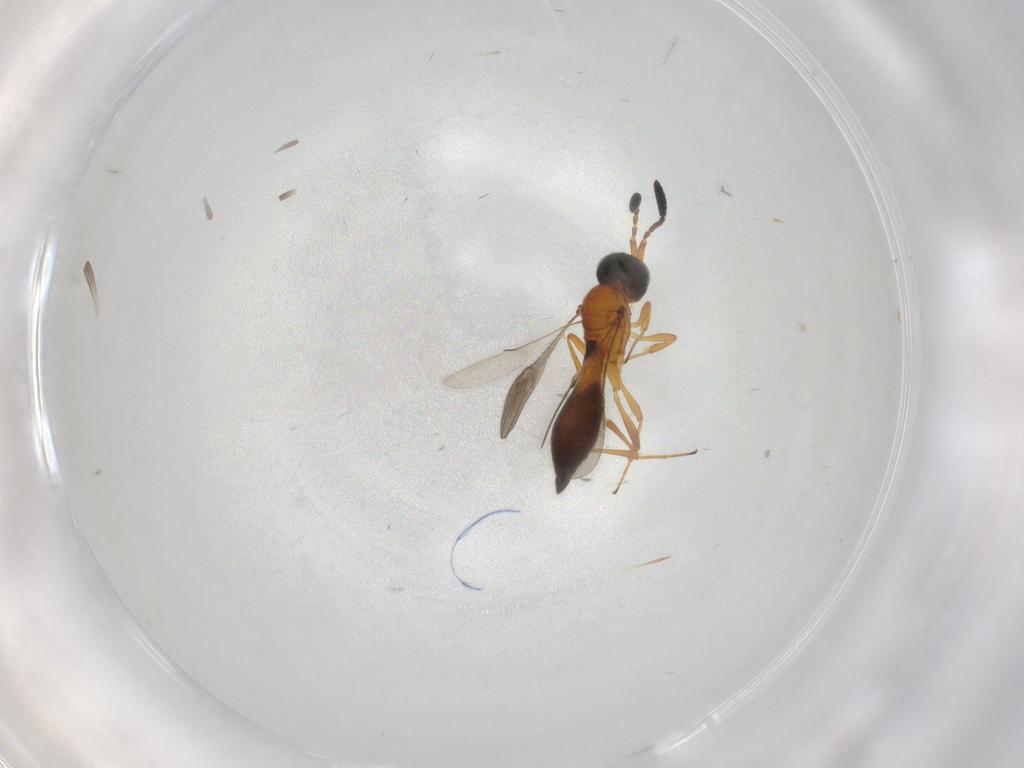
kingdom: Animalia
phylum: Arthropoda
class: Insecta
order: Hymenoptera
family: Scelionidae
